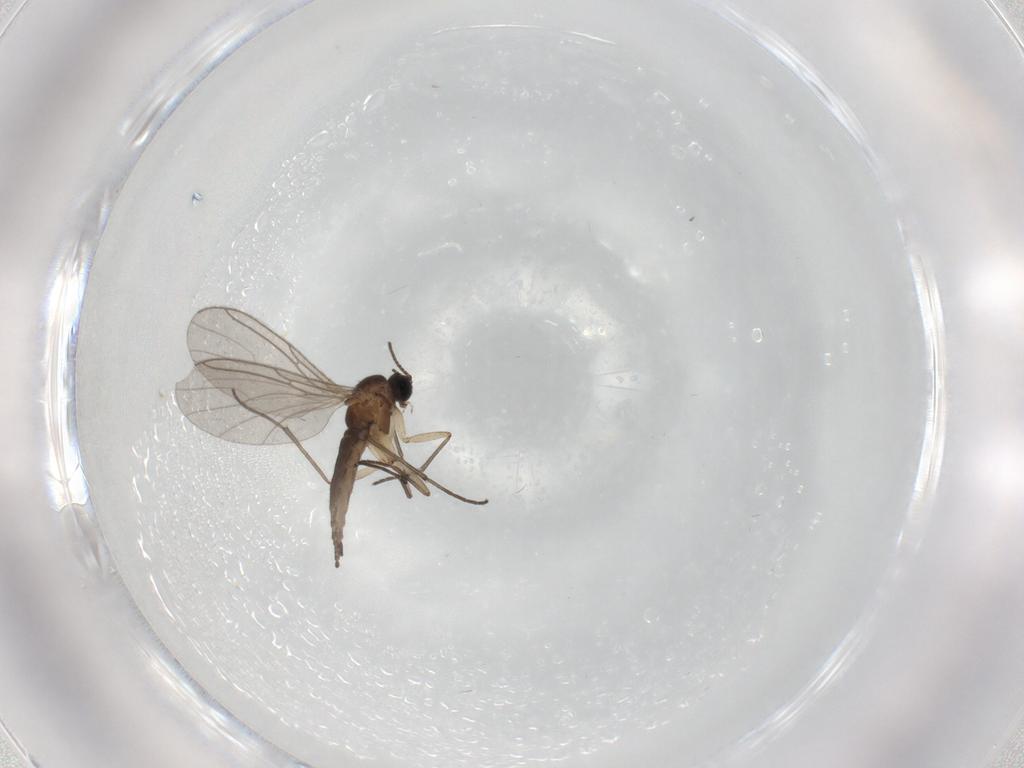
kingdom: Animalia
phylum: Arthropoda
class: Insecta
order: Diptera
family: Sciaridae
